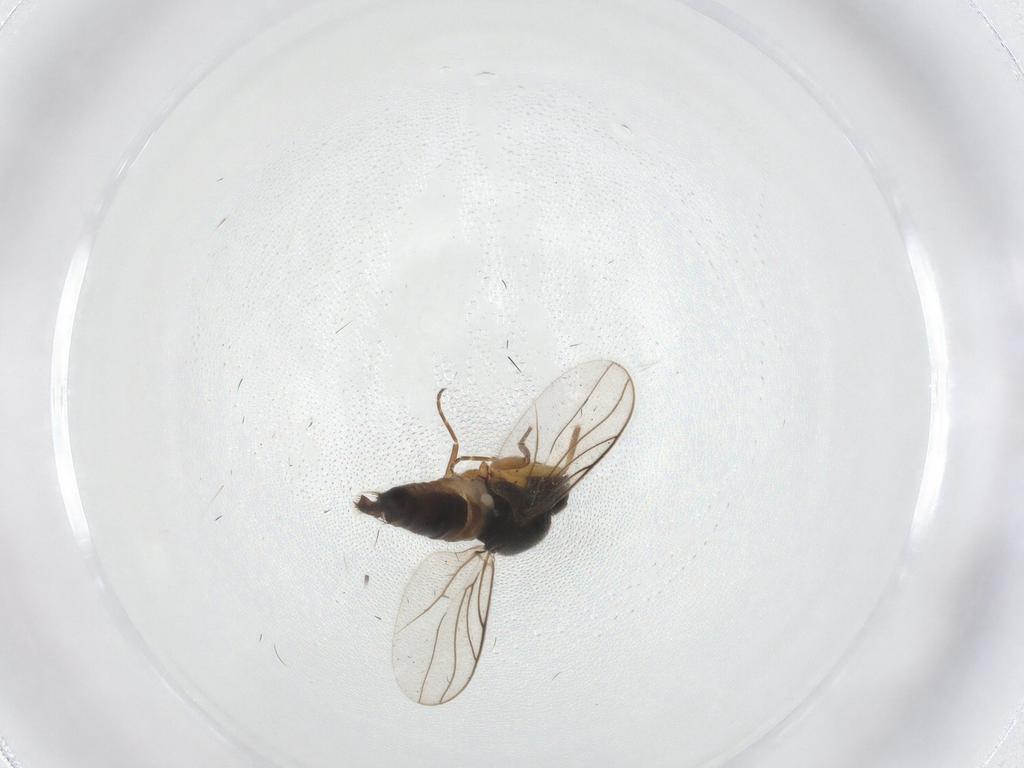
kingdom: Animalia
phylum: Arthropoda
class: Insecta
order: Diptera
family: Hybotidae
